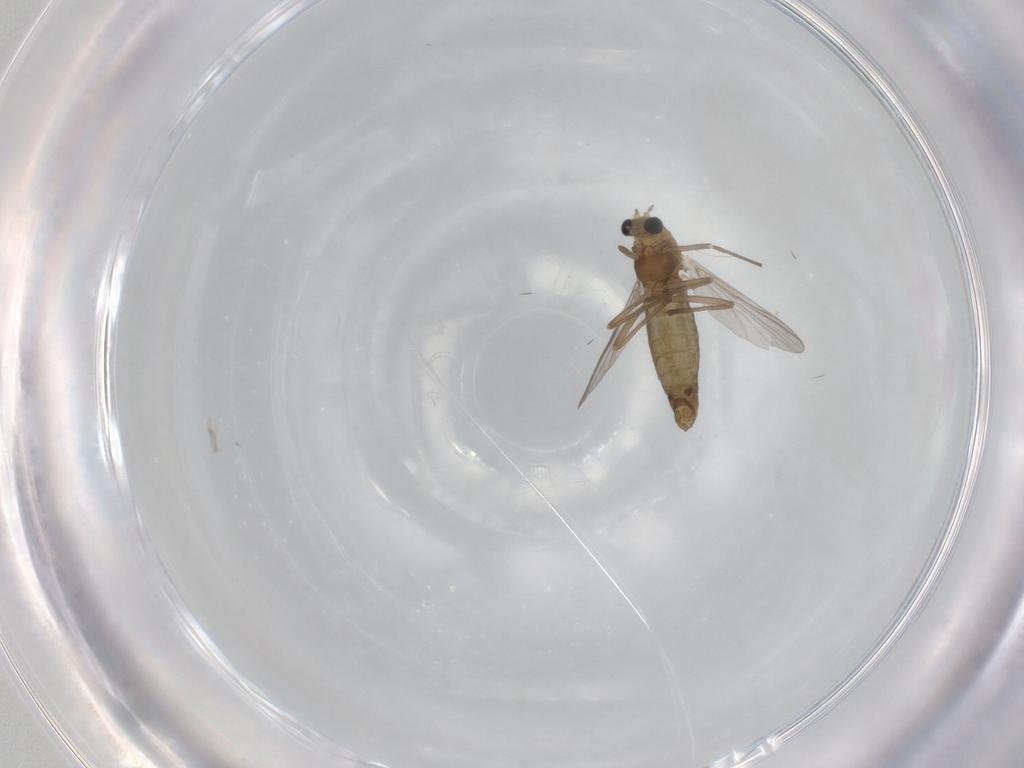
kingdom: Animalia
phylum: Arthropoda
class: Insecta
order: Diptera
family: Chironomidae
